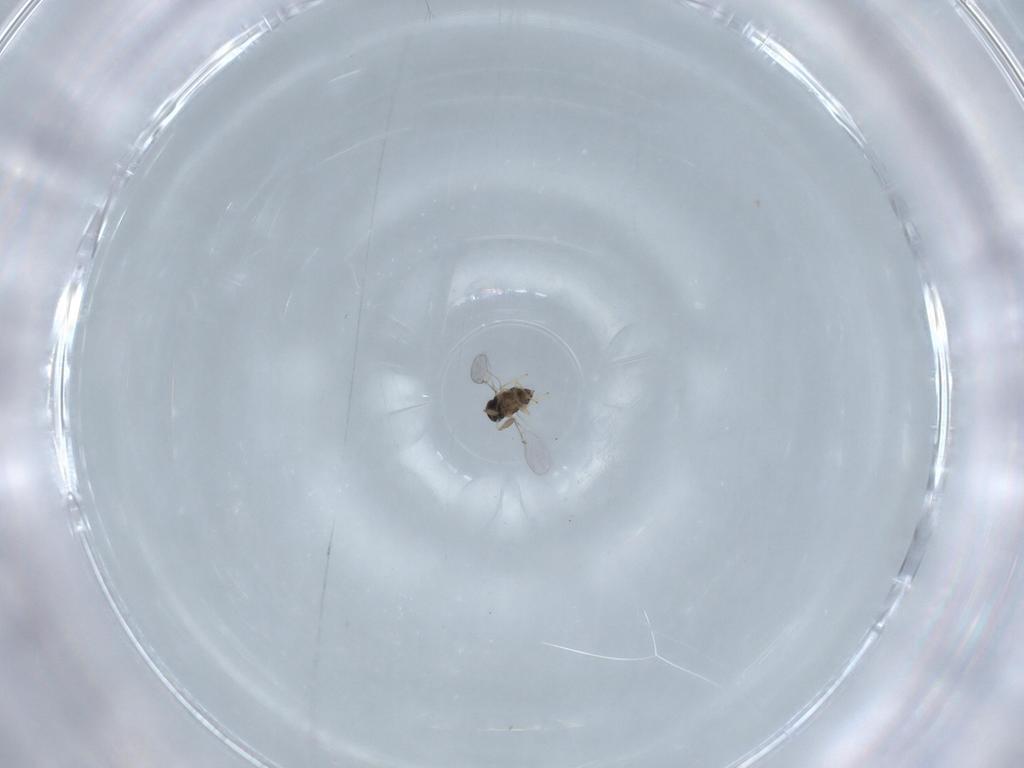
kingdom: Animalia
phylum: Arthropoda
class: Insecta
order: Hymenoptera
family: Encyrtidae
